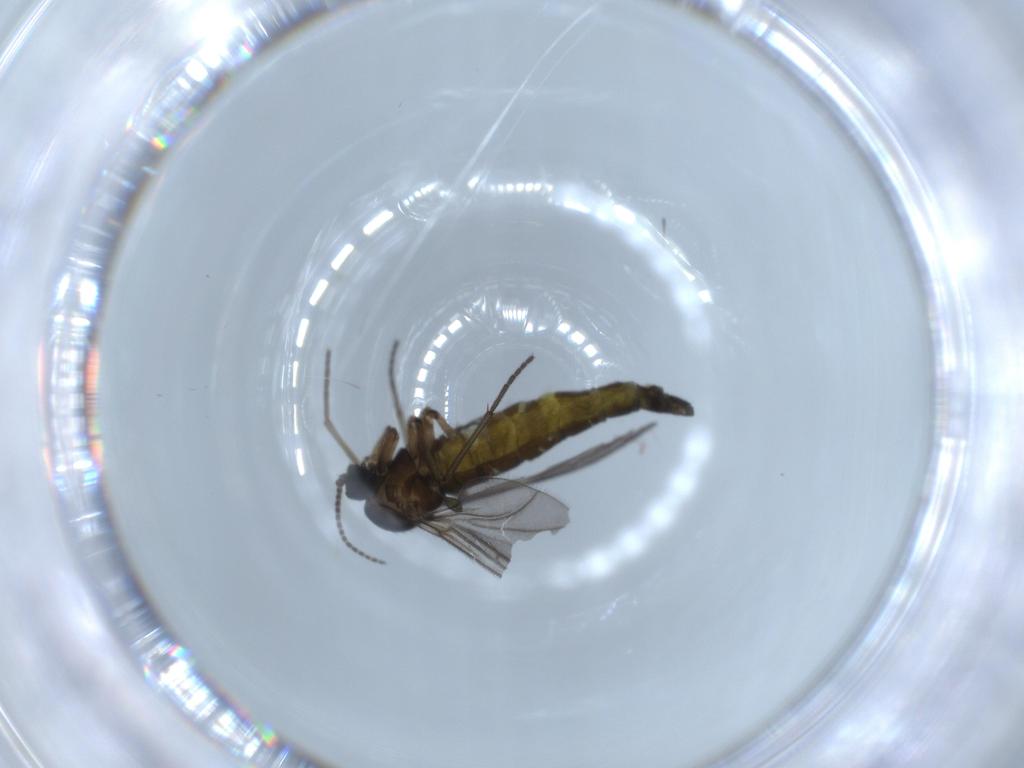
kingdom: Animalia
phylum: Arthropoda
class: Insecta
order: Diptera
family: Sciaridae
